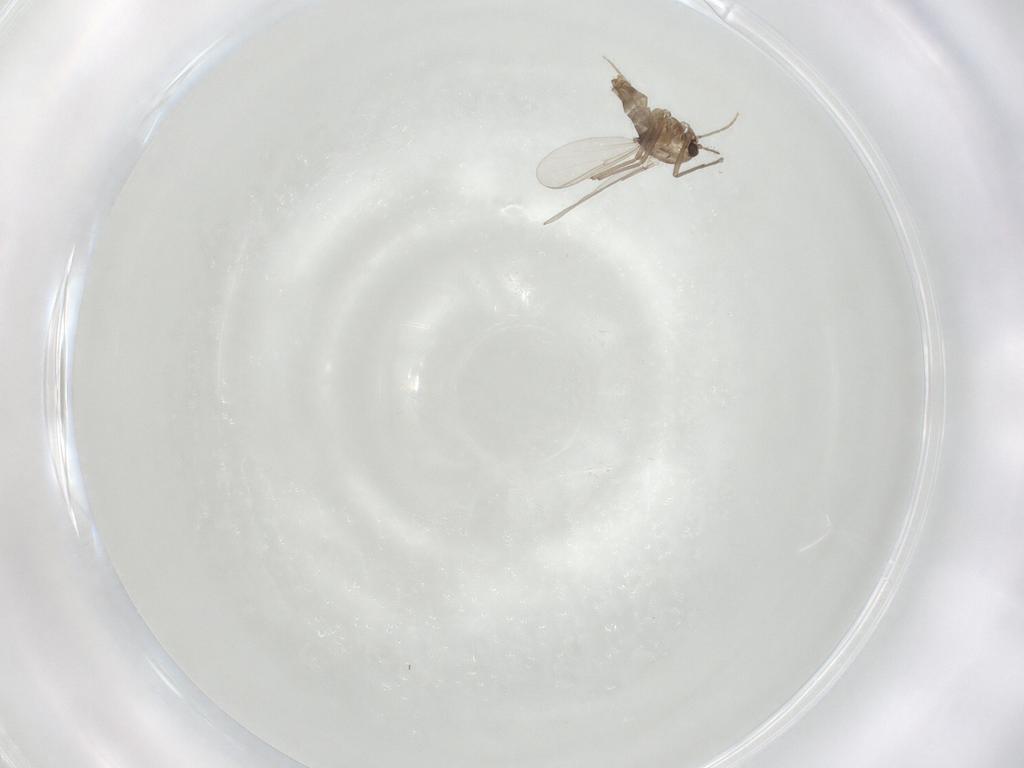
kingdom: Animalia
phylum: Arthropoda
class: Insecta
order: Diptera
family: Chironomidae
